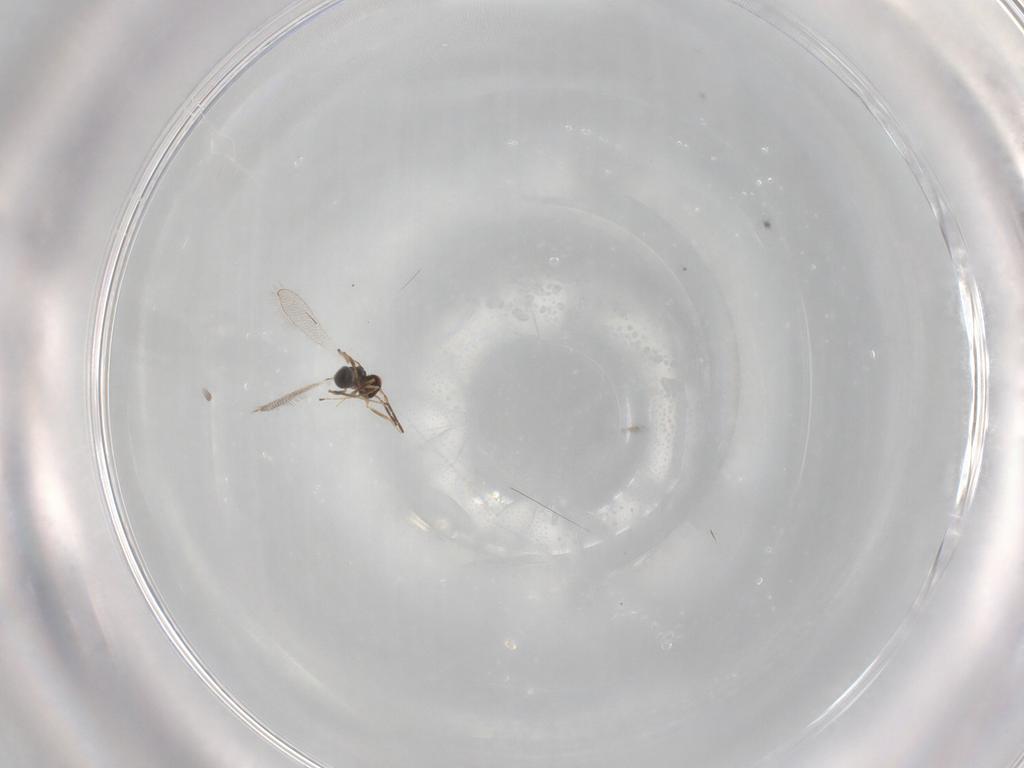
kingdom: Animalia
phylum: Arthropoda
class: Insecta
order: Hymenoptera
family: Mymaridae
